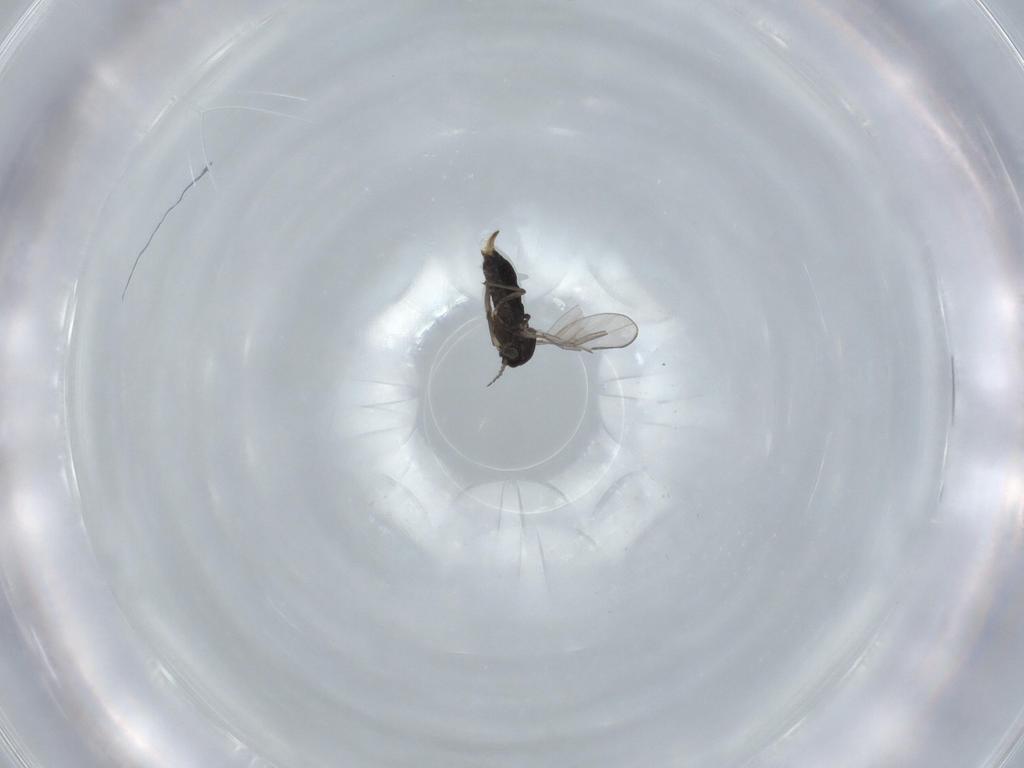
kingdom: Animalia
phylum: Arthropoda
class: Insecta
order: Diptera
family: Chironomidae
